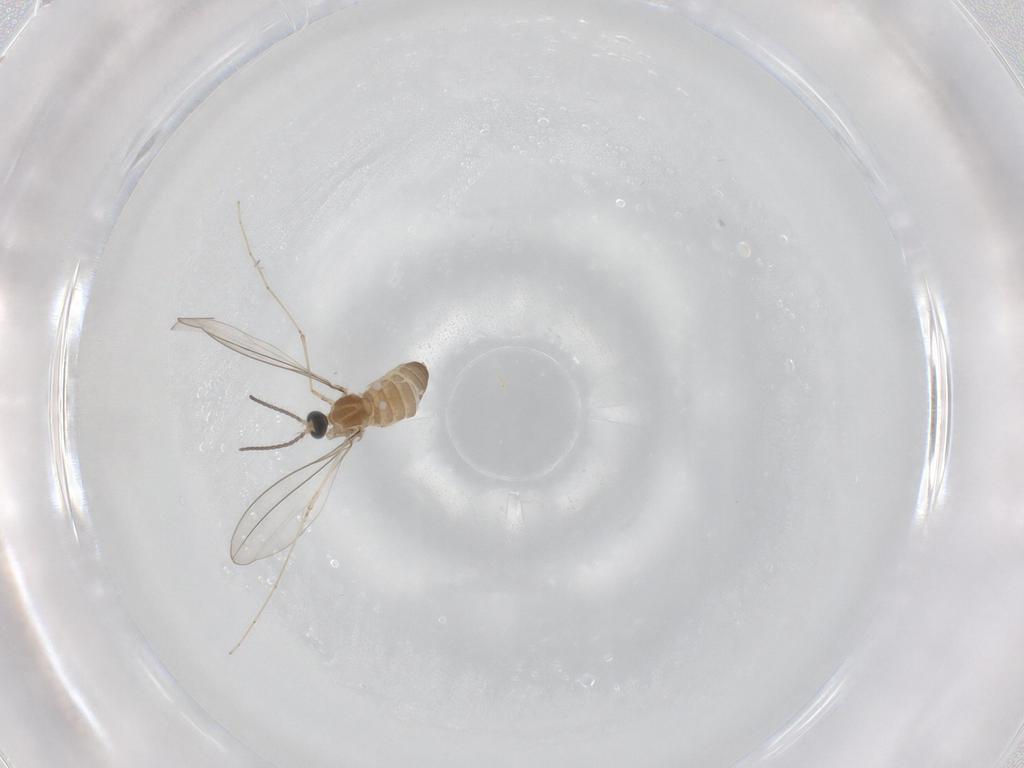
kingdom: Animalia
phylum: Arthropoda
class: Insecta
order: Diptera
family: Cecidomyiidae
